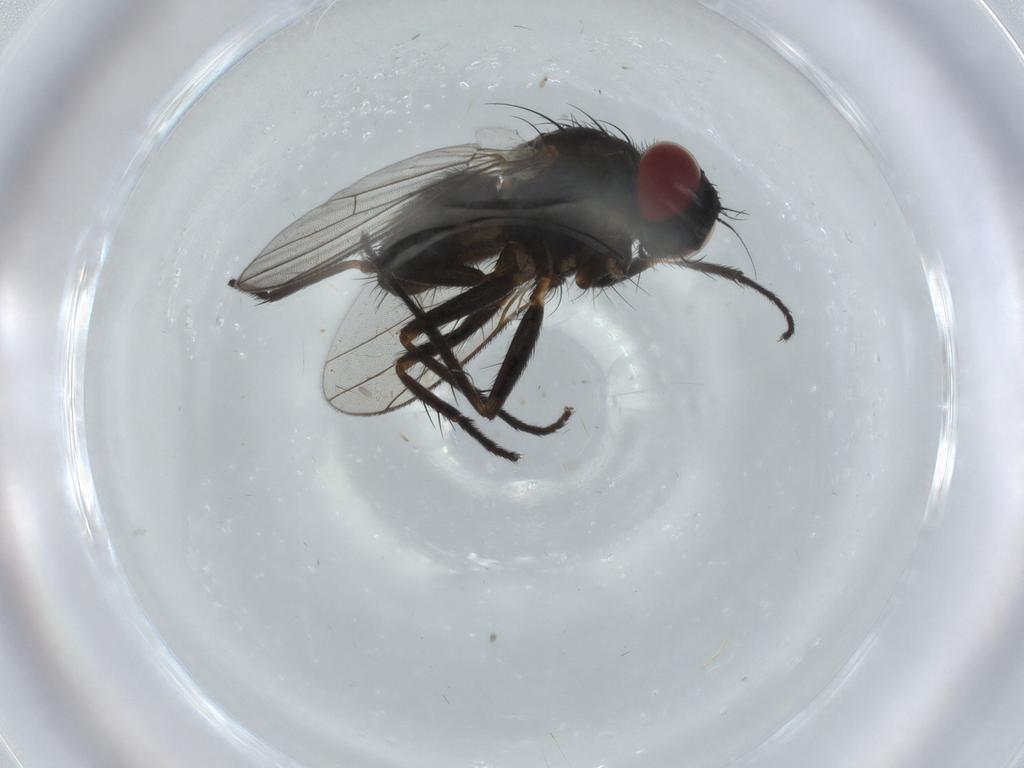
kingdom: Animalia
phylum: Arthropoda
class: Insecta
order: Diptera
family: Muscidae
